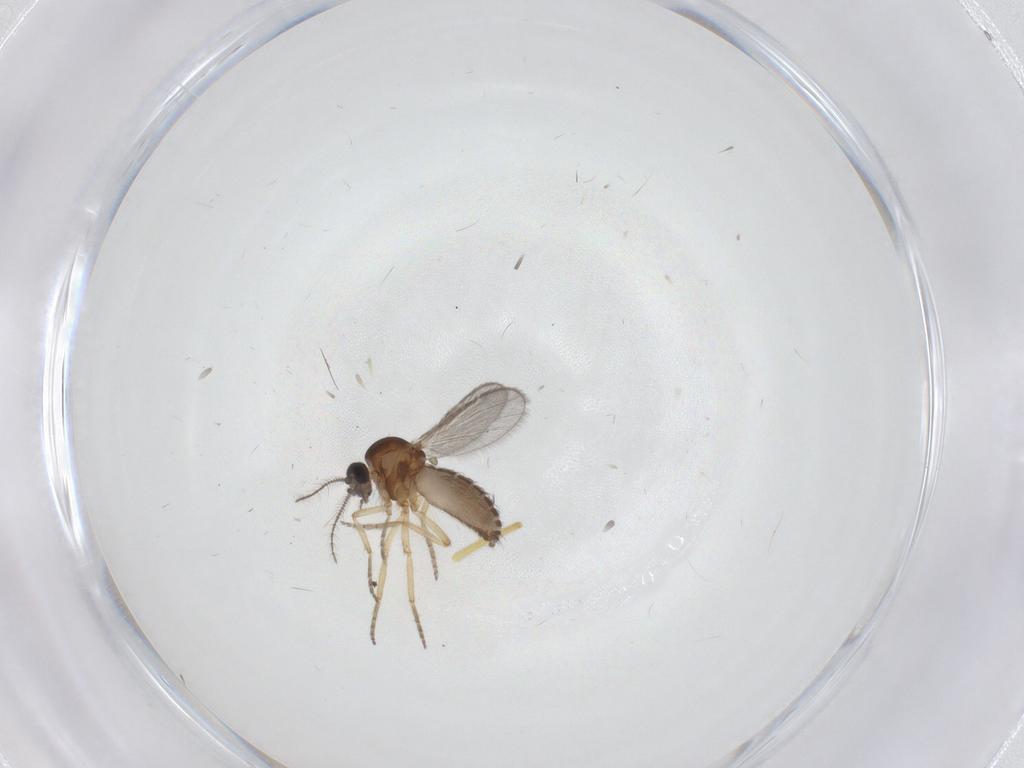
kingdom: Animalia
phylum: Arthropoda
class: Insecta
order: Diptera
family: Ceratopogonidae
